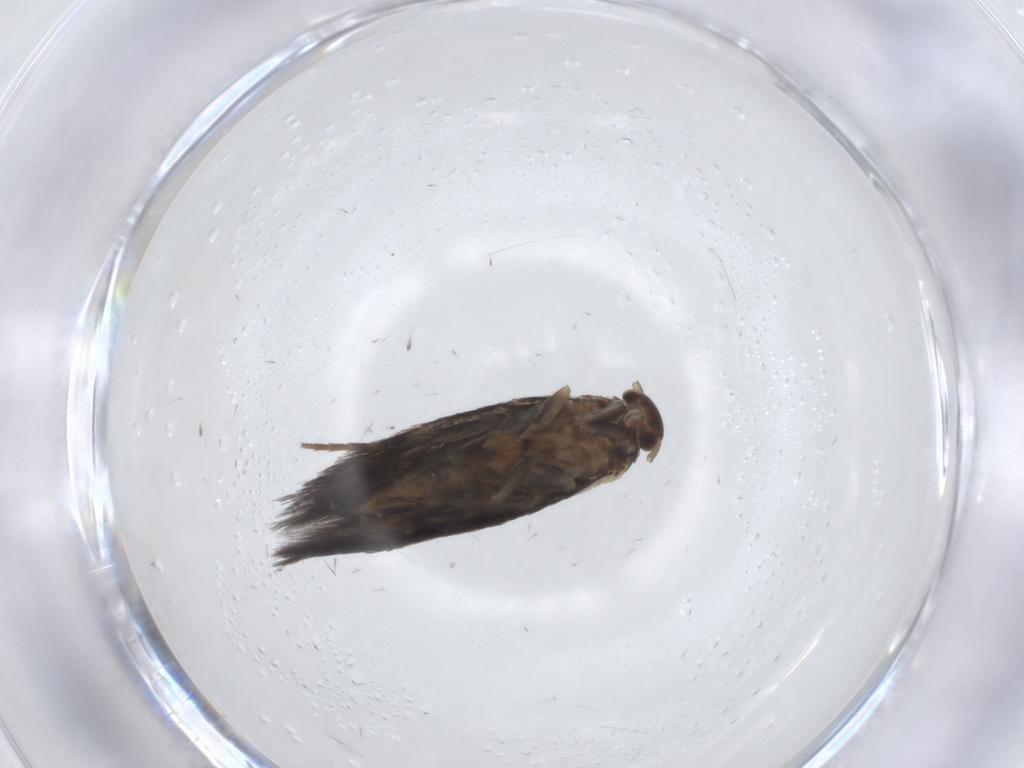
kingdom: Animalia
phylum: Arthropoda
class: Insecta
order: Lepidoptera
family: Elachistidae
